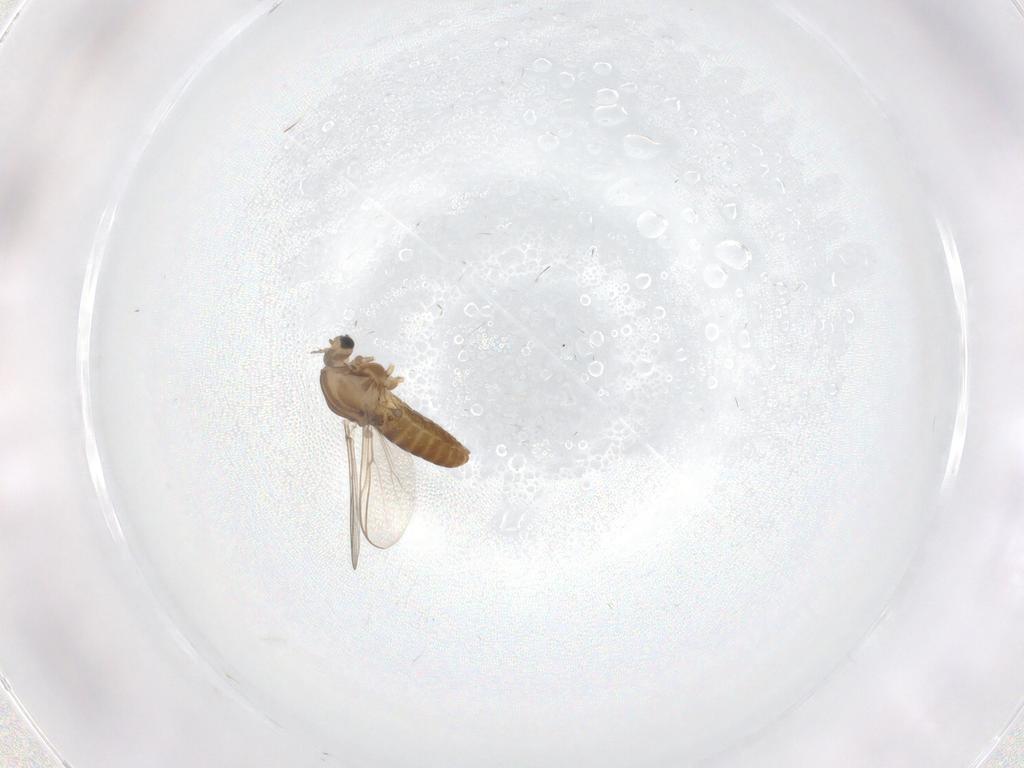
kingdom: Animalia
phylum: Arthropoda
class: Insecta
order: Diptera
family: Chironomidae
